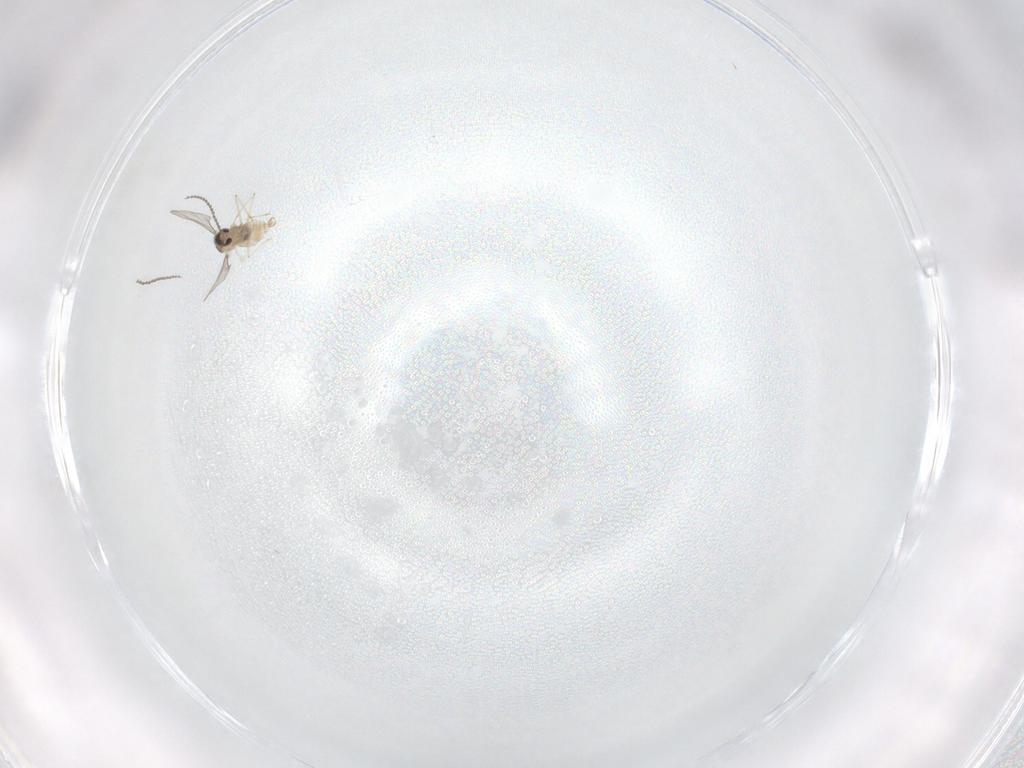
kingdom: Animalia
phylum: Arthropoda
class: Insecta
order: Diptera
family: Cecidomyiidae
